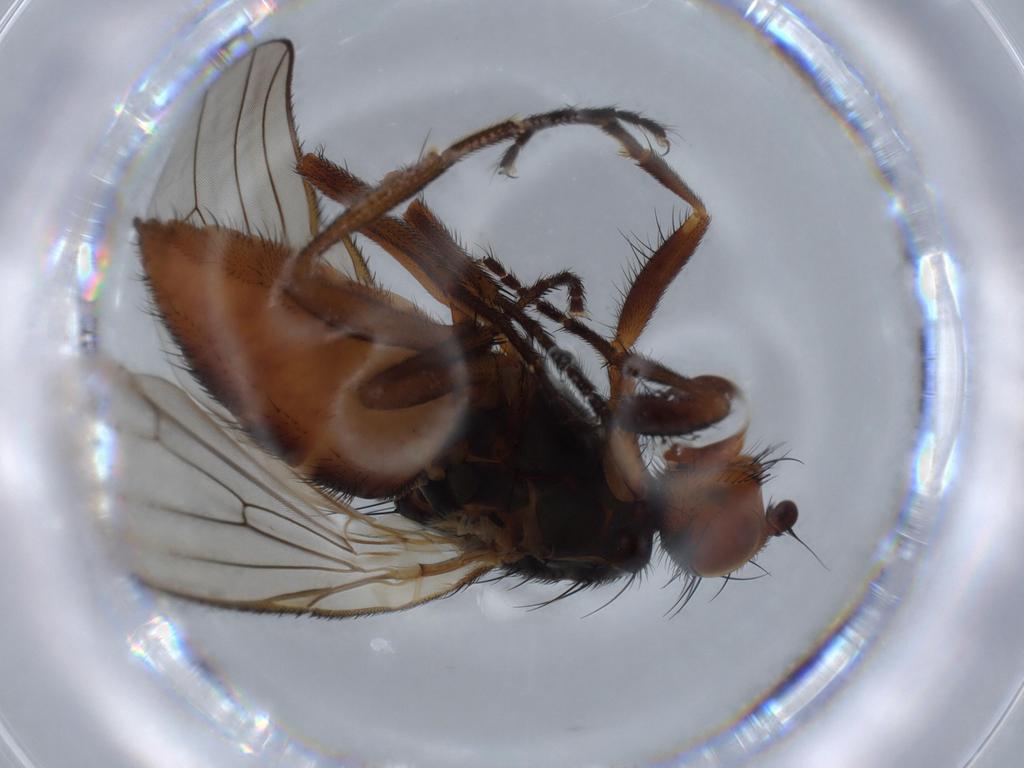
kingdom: Animalia
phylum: Arthropoda
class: Insecta
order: Diptera
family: Heleomyzidae
